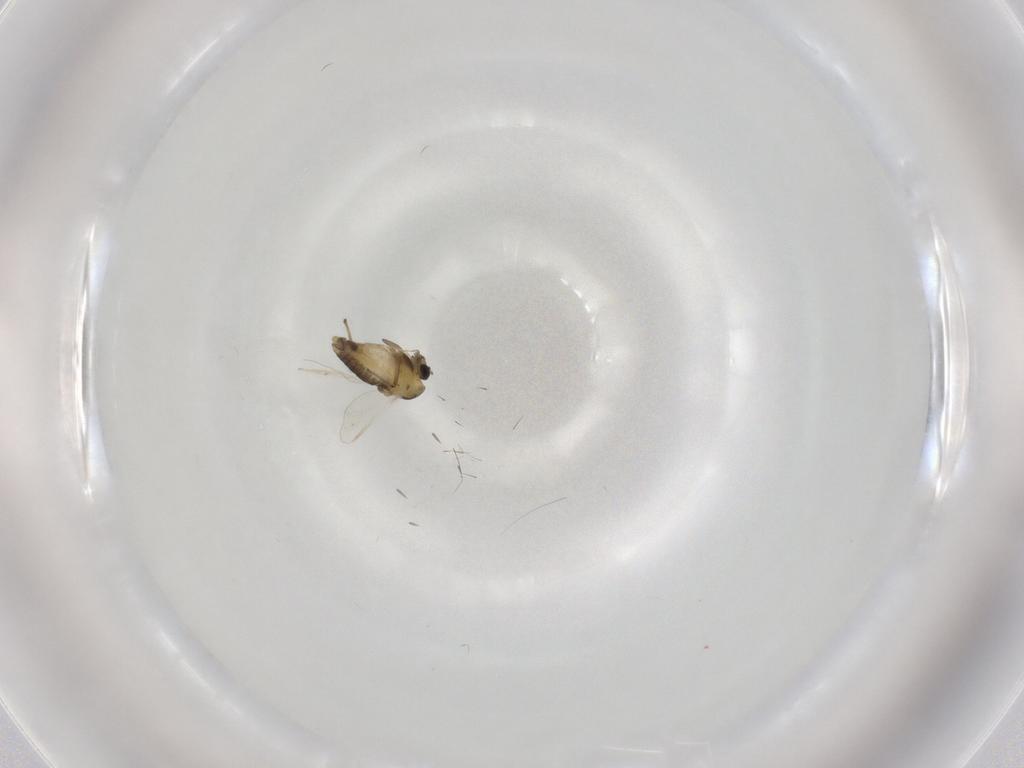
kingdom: Animalia
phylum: Arthropoda
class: Insecta
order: Diptera
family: Chironomidae
